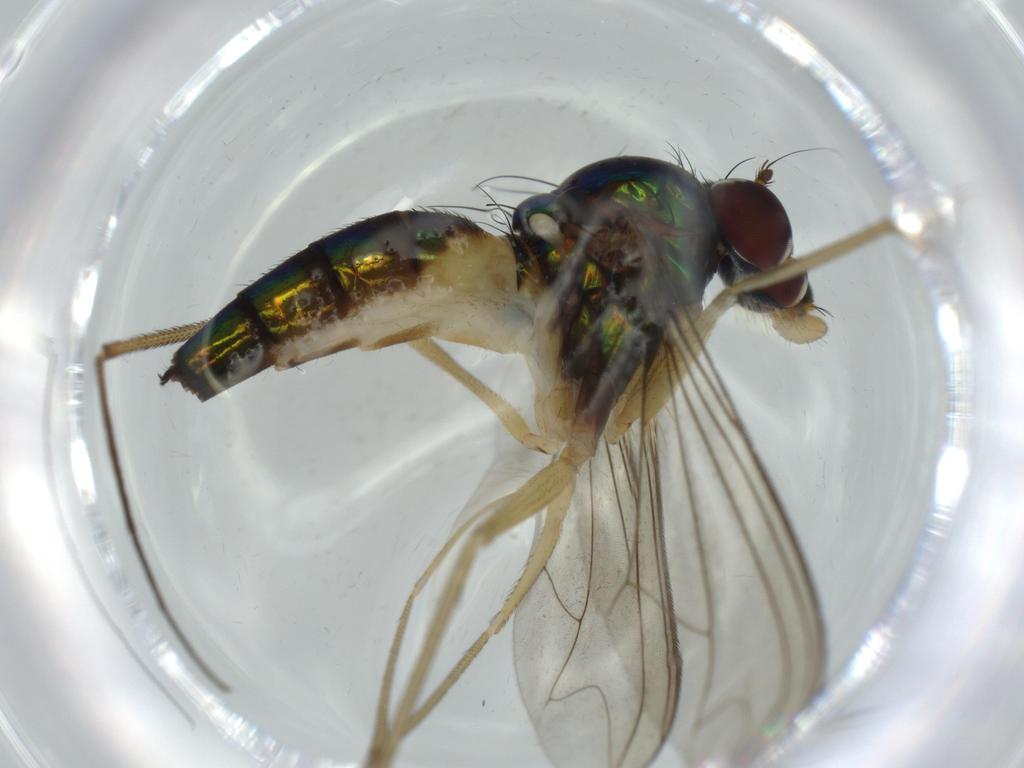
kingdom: Animalia
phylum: Arthropoda
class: Insecta
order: Diptera
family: Dolichopodidae
